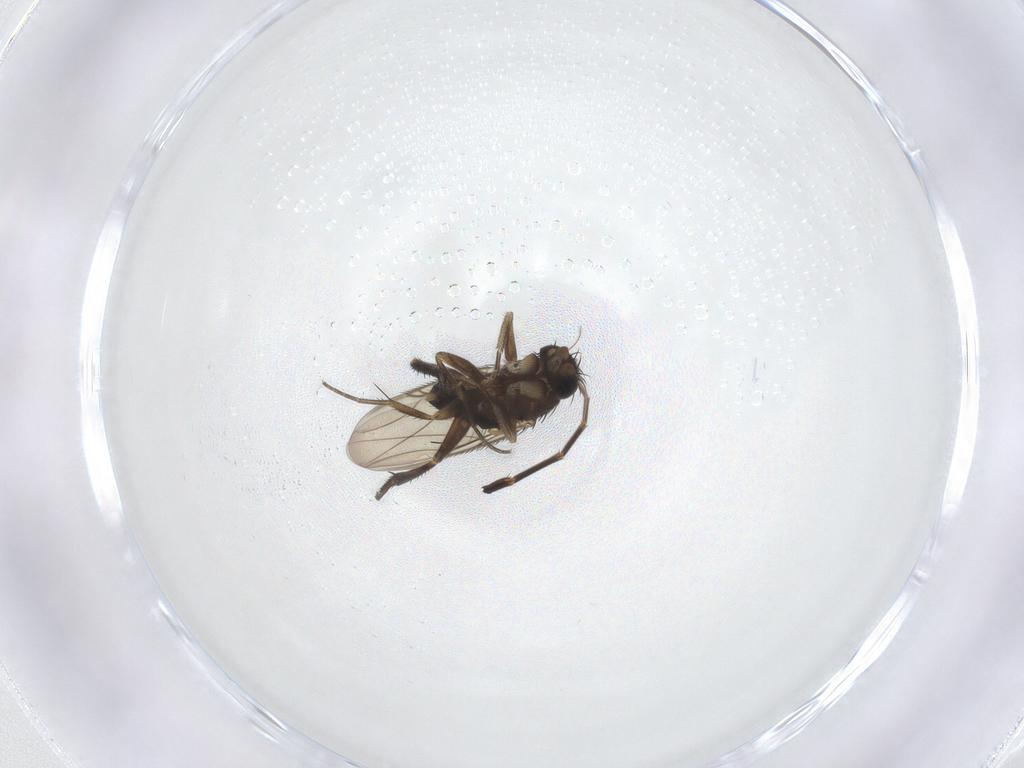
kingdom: Animalia
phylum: Arthropoda
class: Insecta
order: Diptera
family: Phoridae
